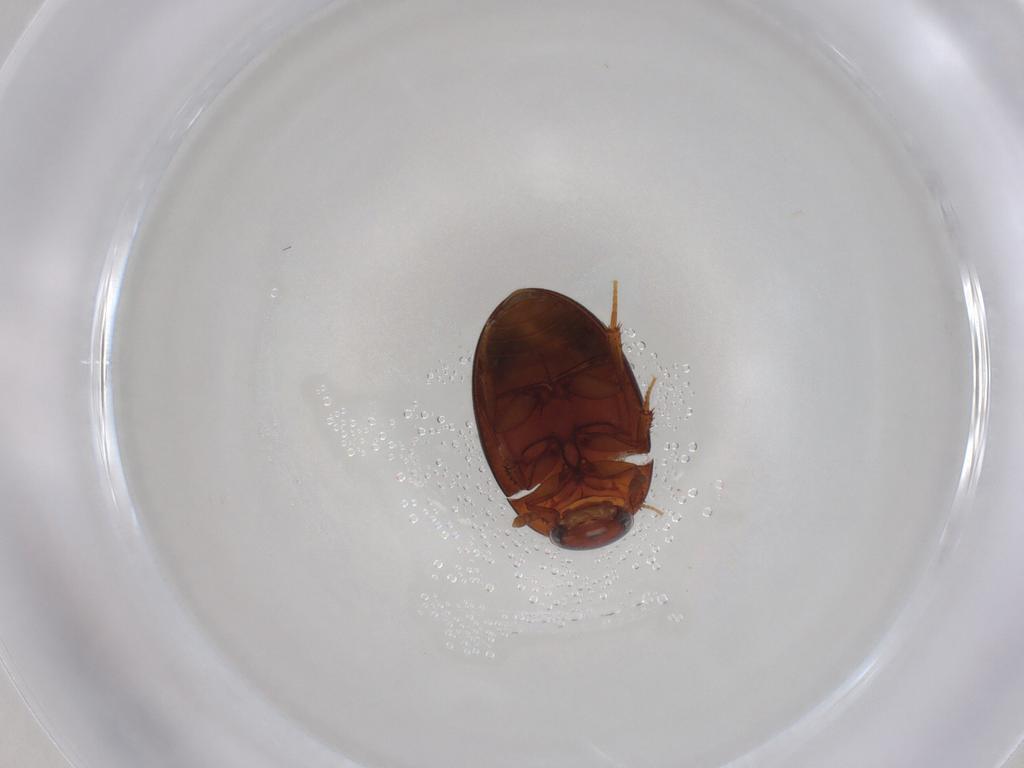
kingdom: Animalia
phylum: Arthropoda
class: Insecta
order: Coleoptera
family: Hydrophilidae
